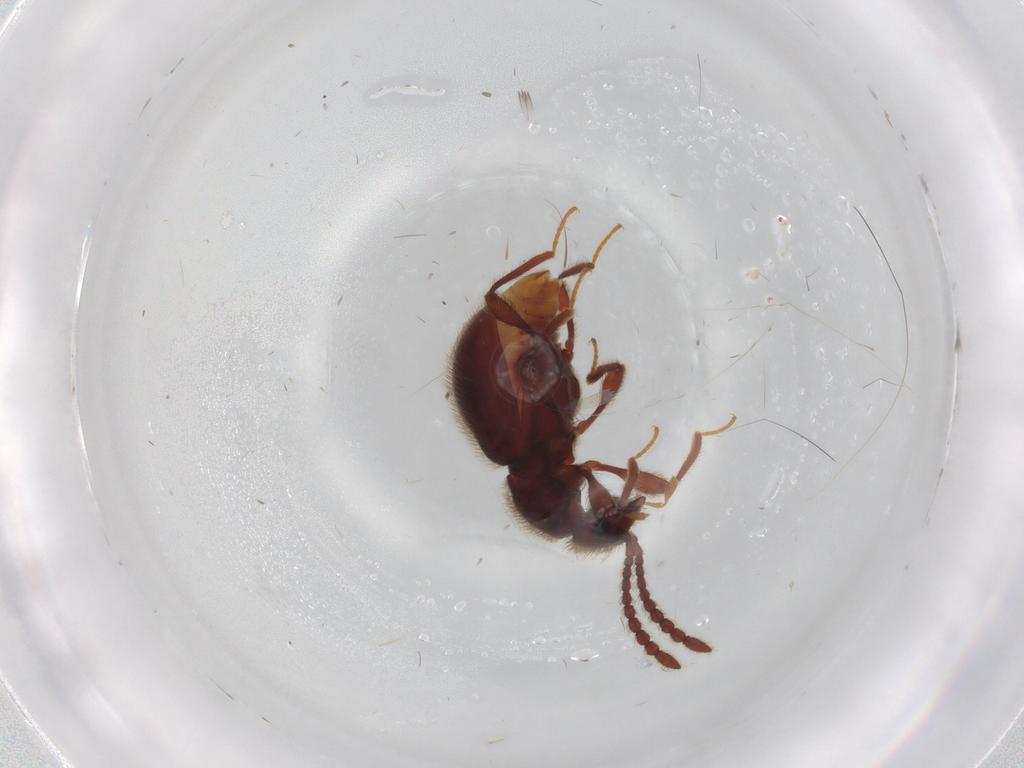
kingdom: Animalia
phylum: Arthropoda
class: Insecta
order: Coleoptera
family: Staphylinidae
